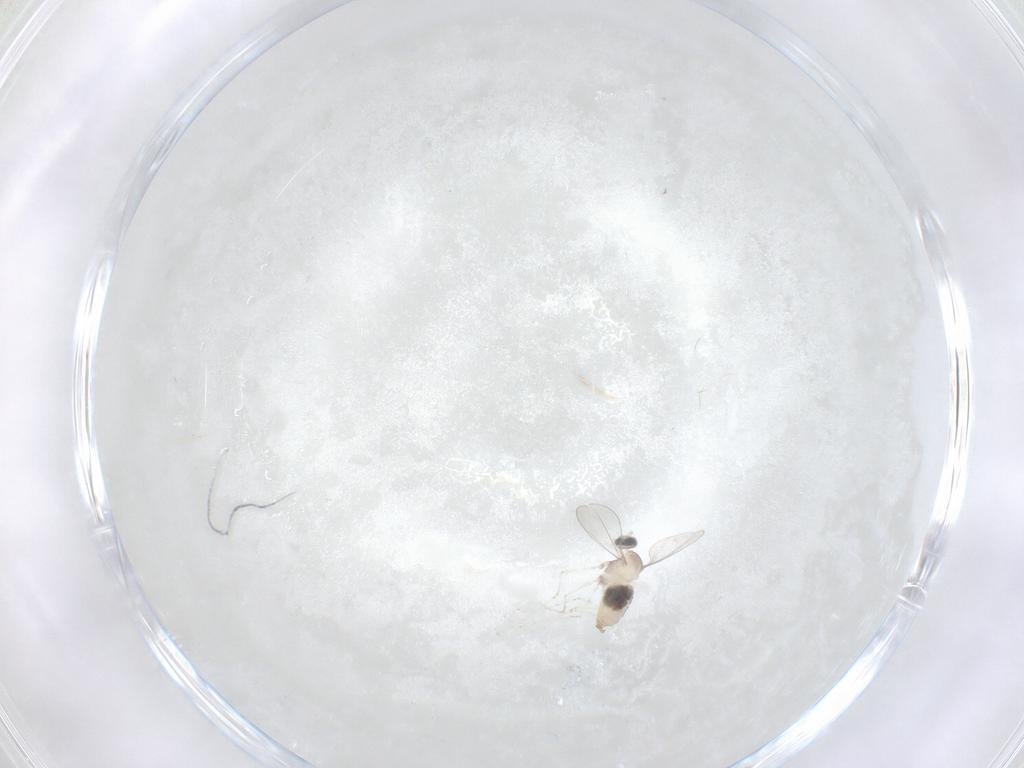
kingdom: Animalia
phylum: Arthropoda
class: Insecta
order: Diptera
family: Cecidomyiidae
